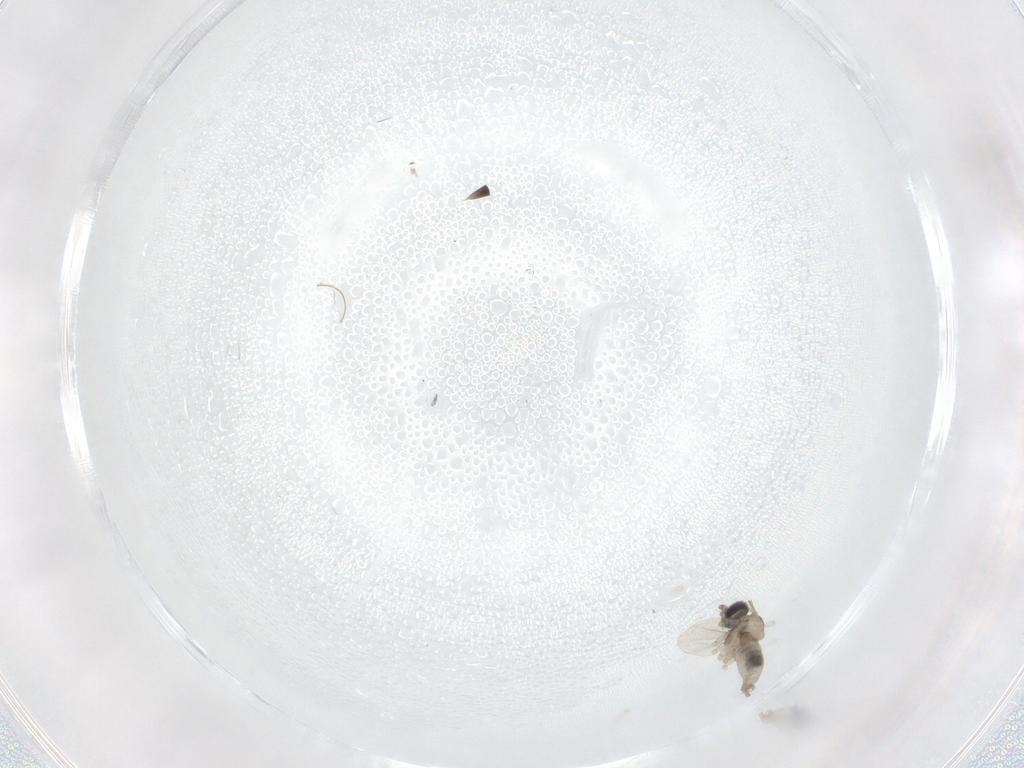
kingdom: Animalia
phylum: Arthropoda
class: Insecta
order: Diptera
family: Cecidomyiidae
